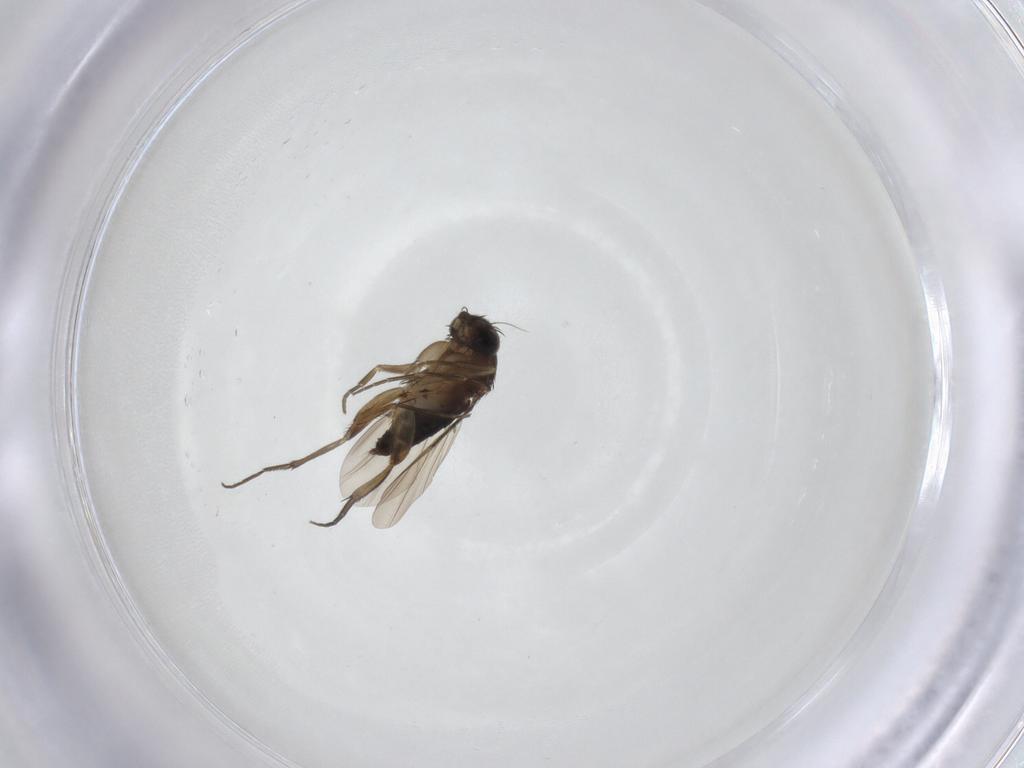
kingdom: Animalia
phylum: Arthropoda
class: Insecta
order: Diptera
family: Phoridae
